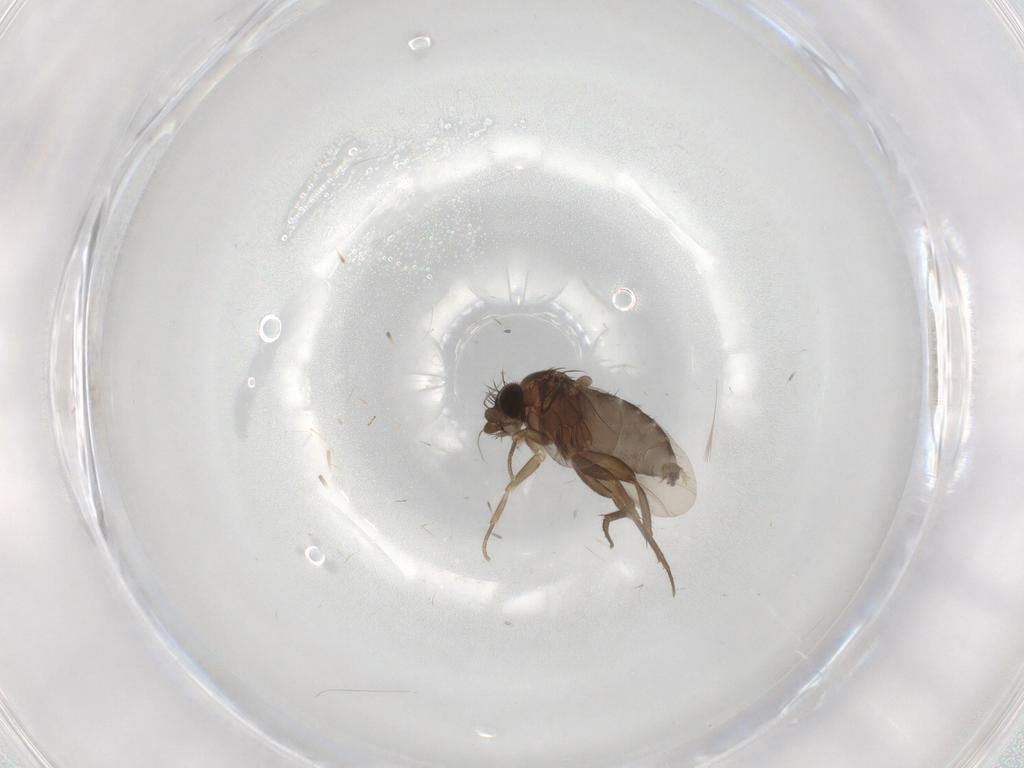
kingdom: Animalia
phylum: Arthropoda
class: Insecta
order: Diptera
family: Phoridae
